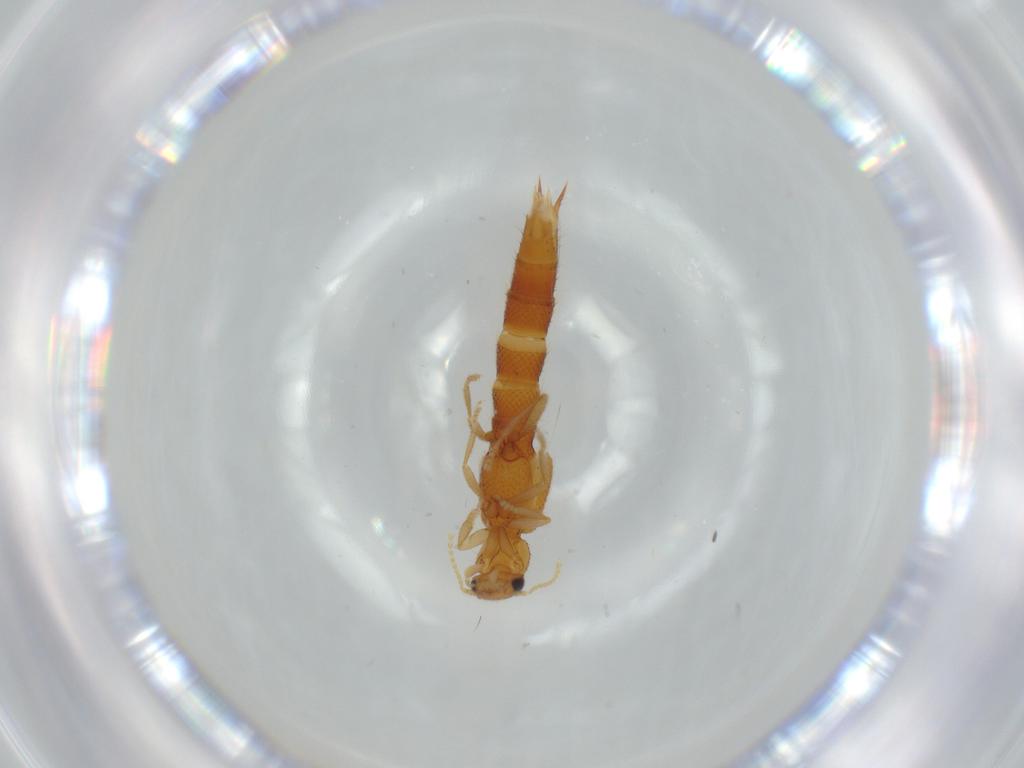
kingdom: Animalia
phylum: Arthropoda
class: Insecta
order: Coleoptera
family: Staphylinidae
